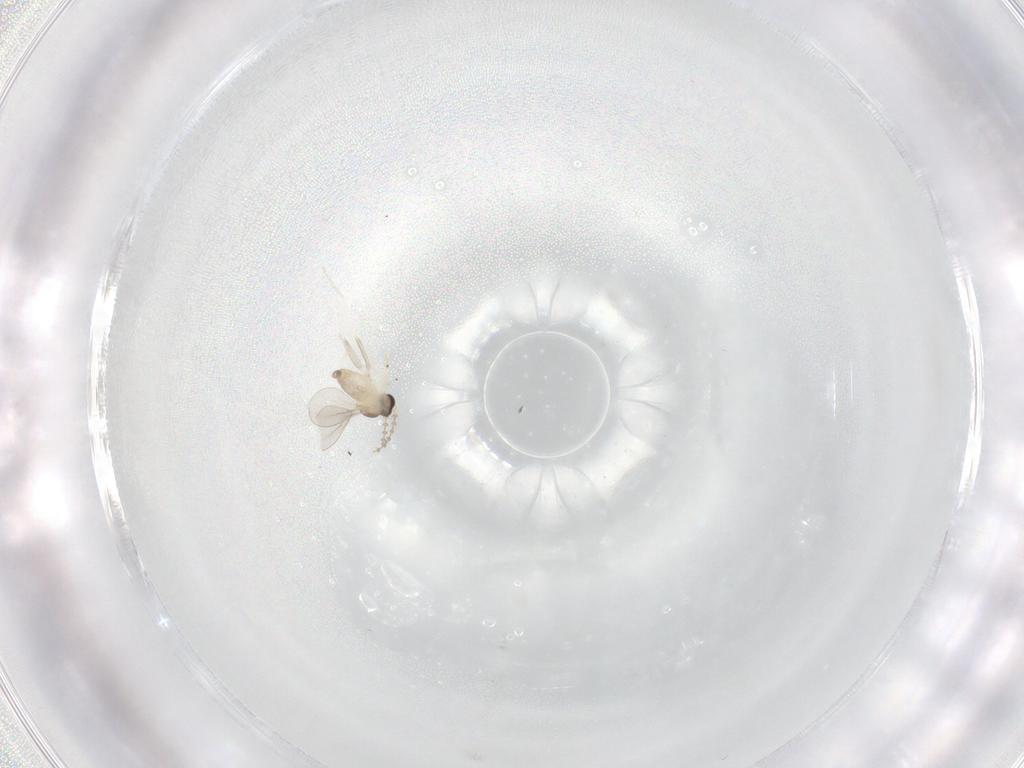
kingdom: Animalia
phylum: Arthropoda
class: Insecta
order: Diptera
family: Cecidomyiidae
